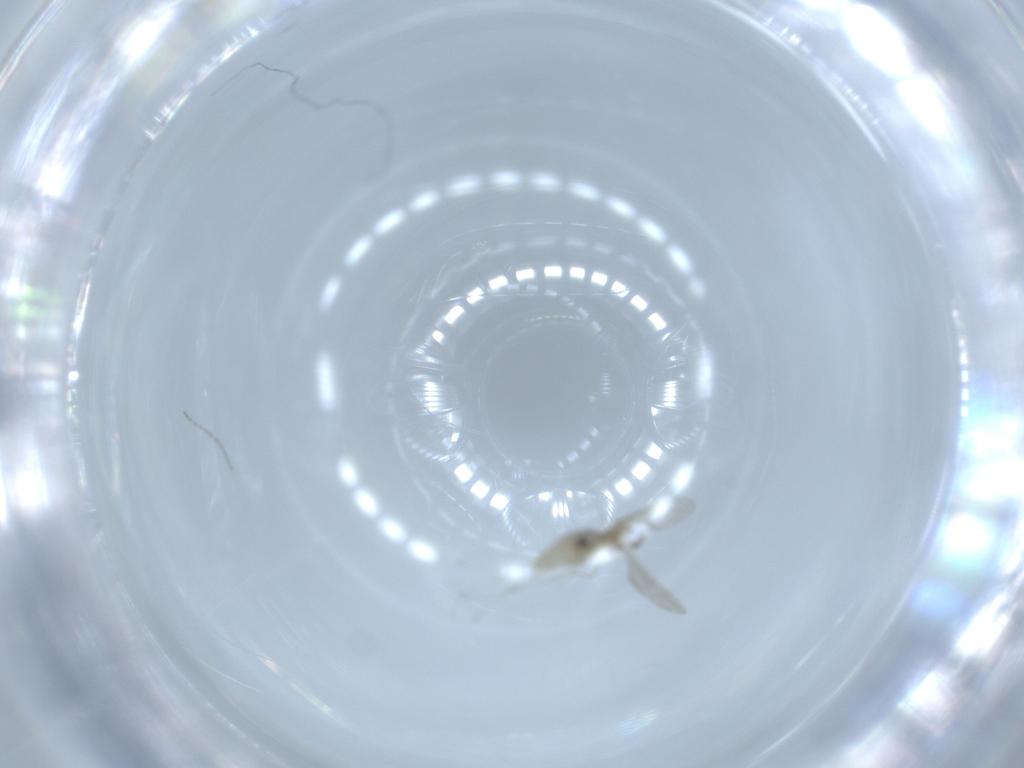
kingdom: Animalia
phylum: Arthropoda
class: Insecta
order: Diptera
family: Cecidomyiidae
